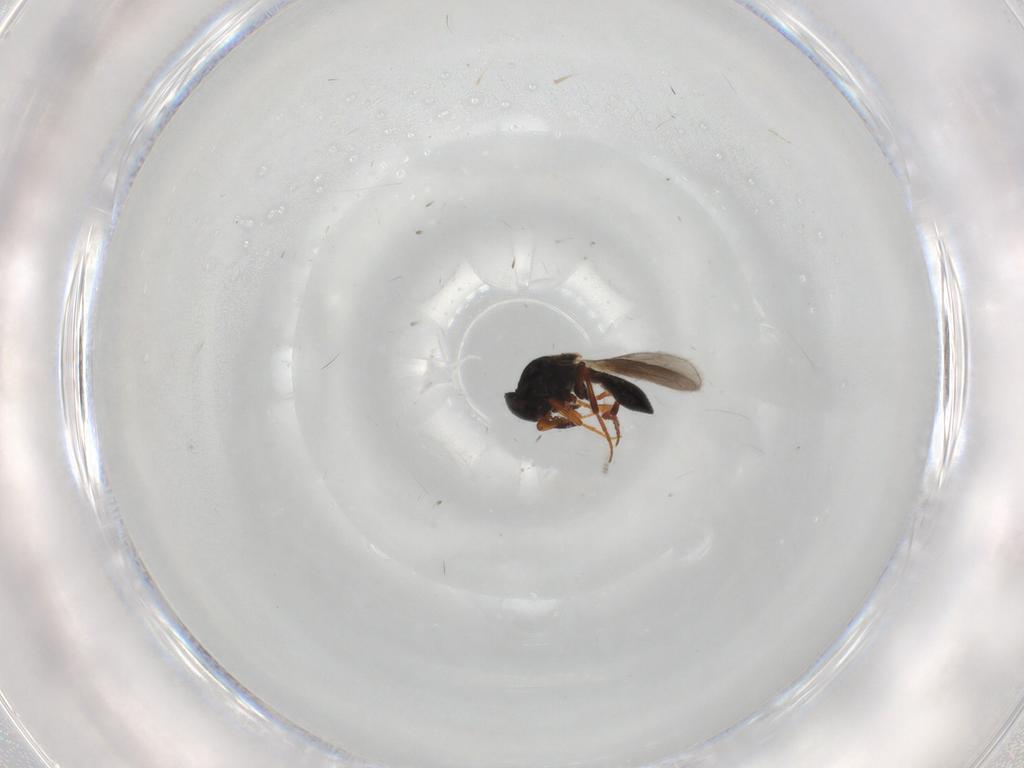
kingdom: Animalia
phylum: Arthropoda
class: Insecta
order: Hymenoptera
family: Platygastridae
